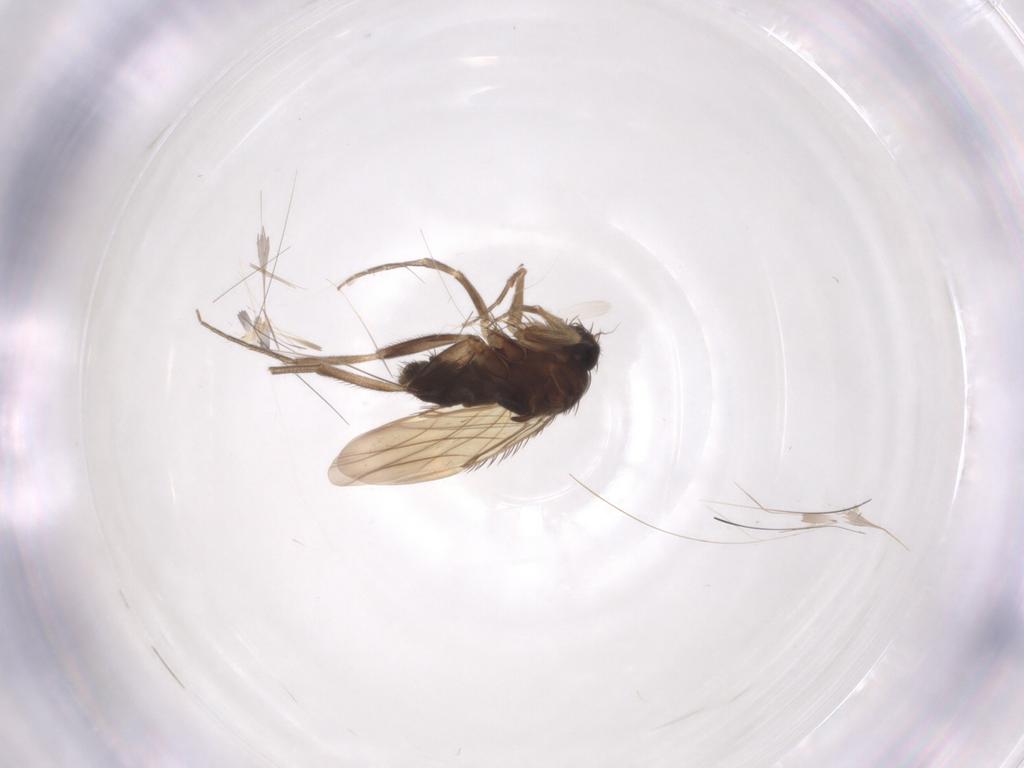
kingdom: Animalia
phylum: Arthropoda
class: Insecta
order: Diptera
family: Phoridae
